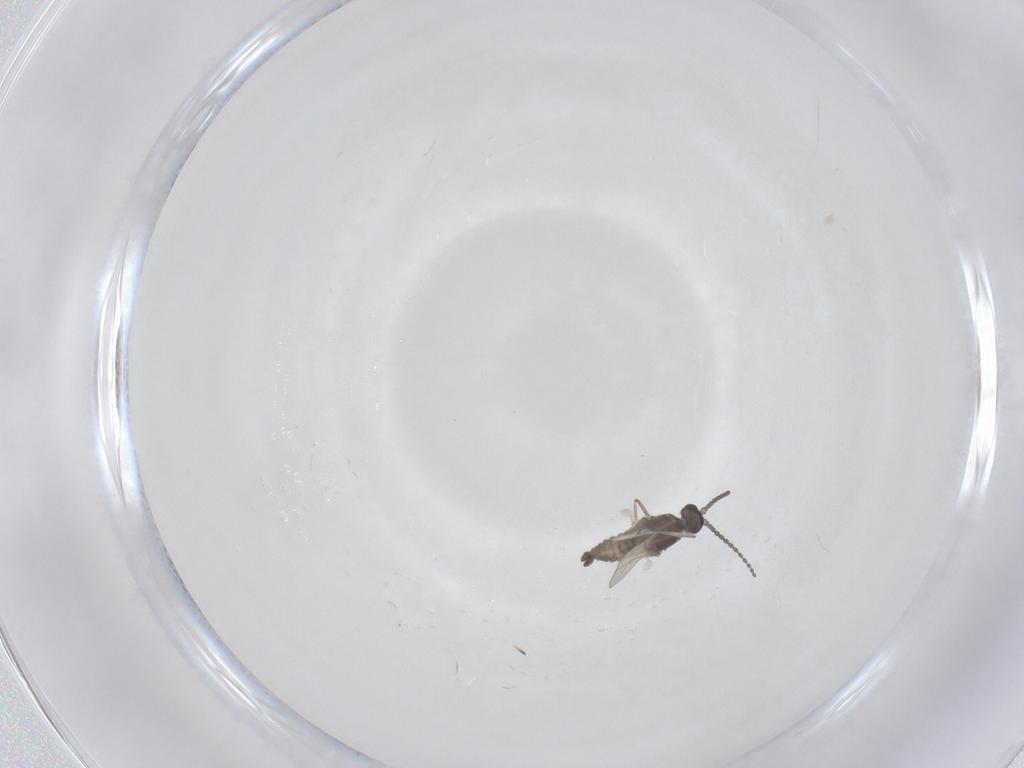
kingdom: Animalia
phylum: Arthropoda
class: Insecta
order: Diptera
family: Cecidomyiidae
